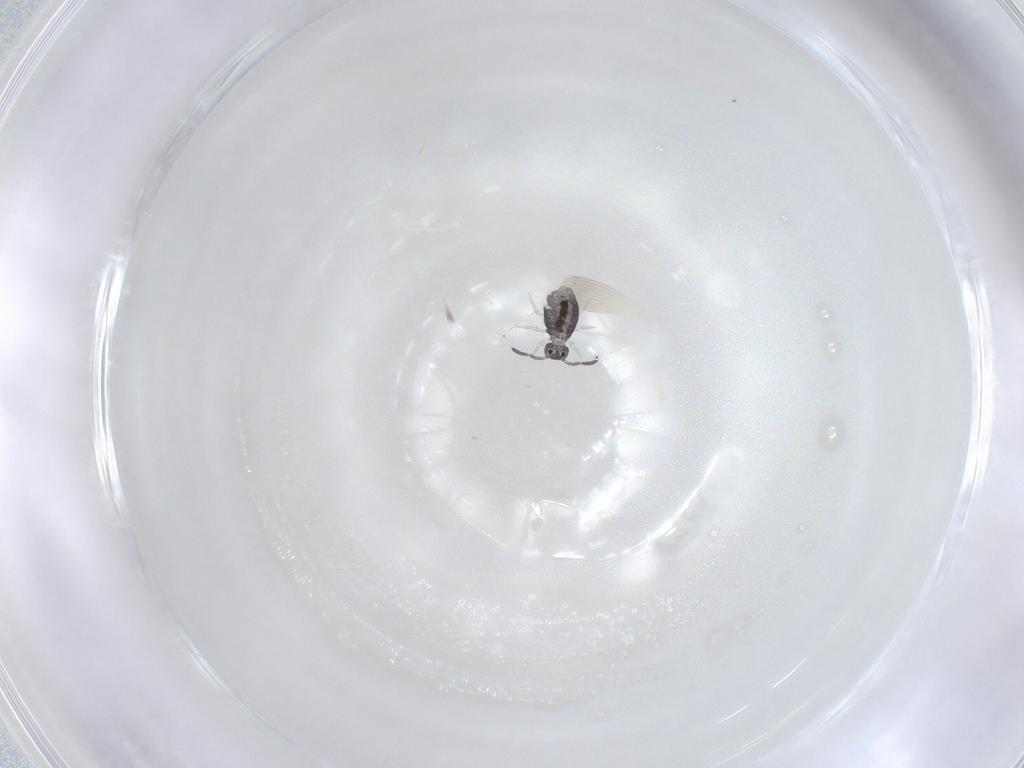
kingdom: Animalia
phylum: Arthropoda
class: Collembola
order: Symphypleona
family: Katiannidae
